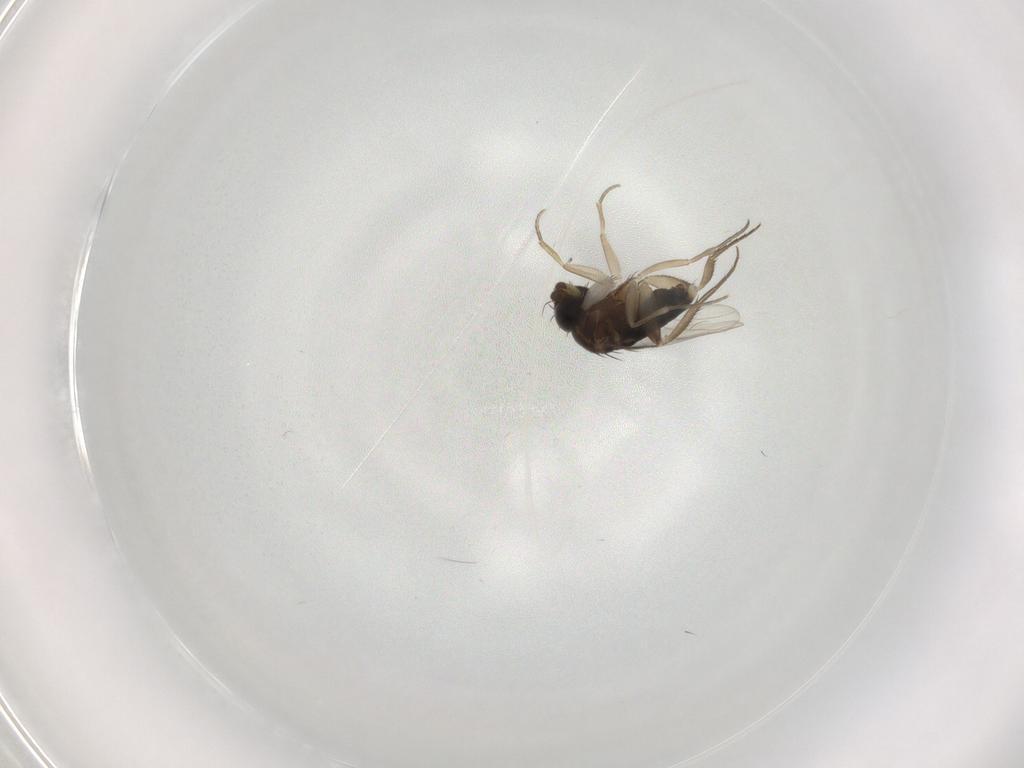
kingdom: Animalia
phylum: Arthropoda
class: Insecta
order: Diptera
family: Phoridae
